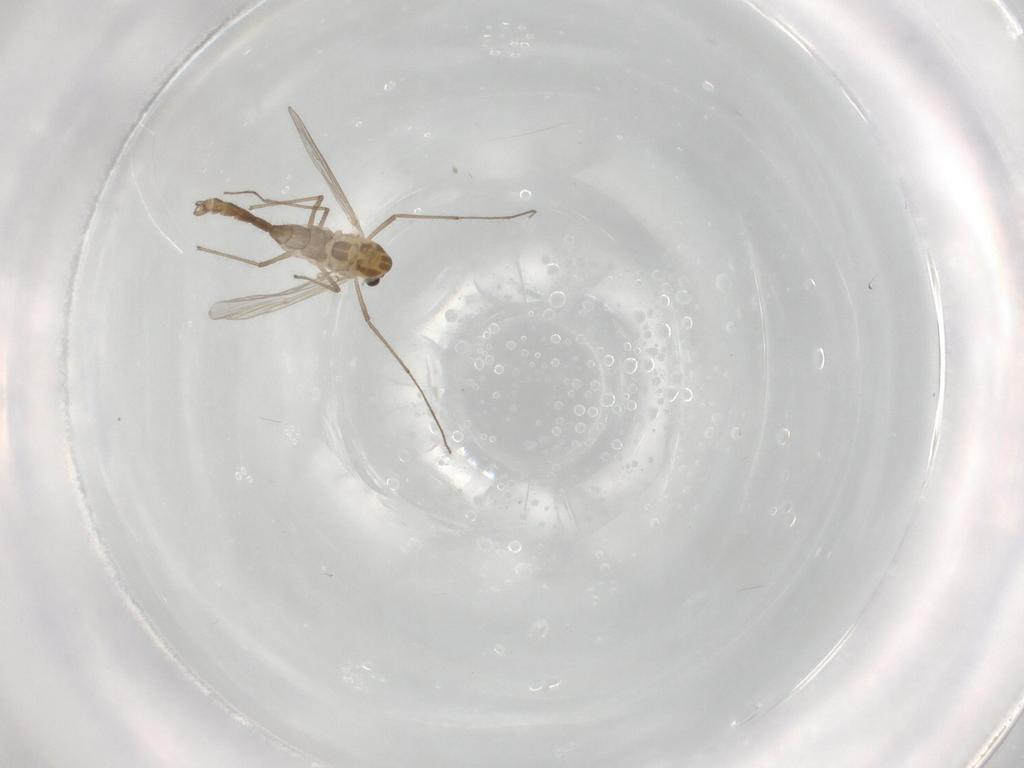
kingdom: Animalia
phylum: Arthropoda
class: Insecta
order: Diptera
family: Chironomidae
